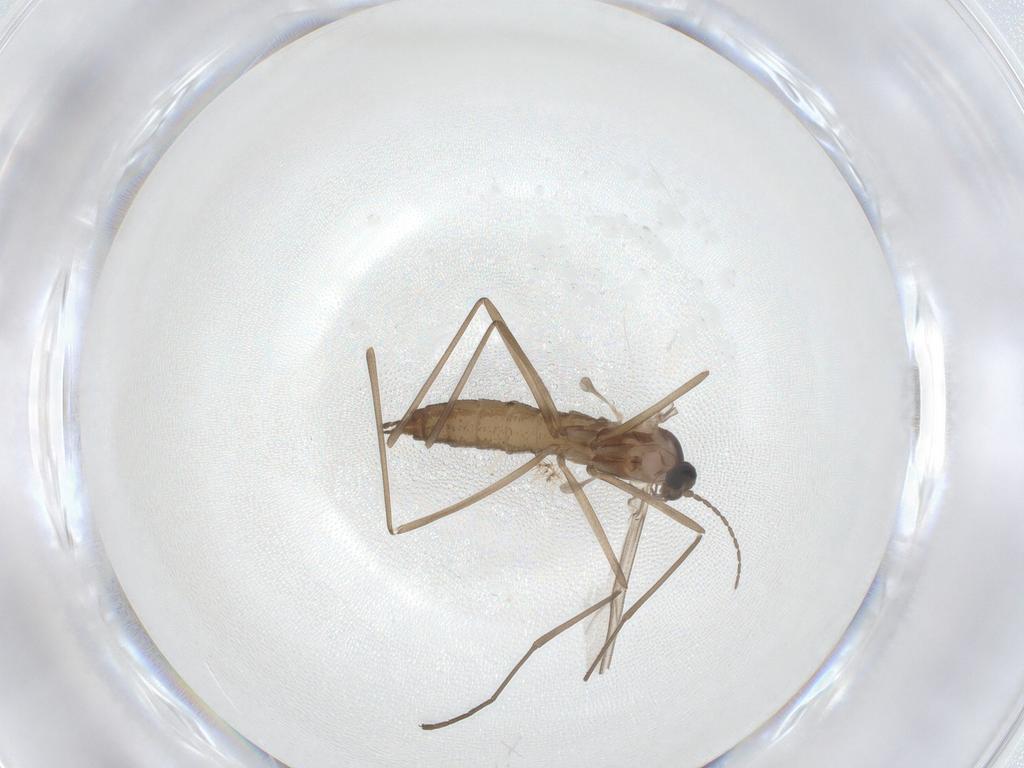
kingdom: Animalia
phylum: Arthropoda
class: Insecta
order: Diptera
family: Cecidomyiidae
